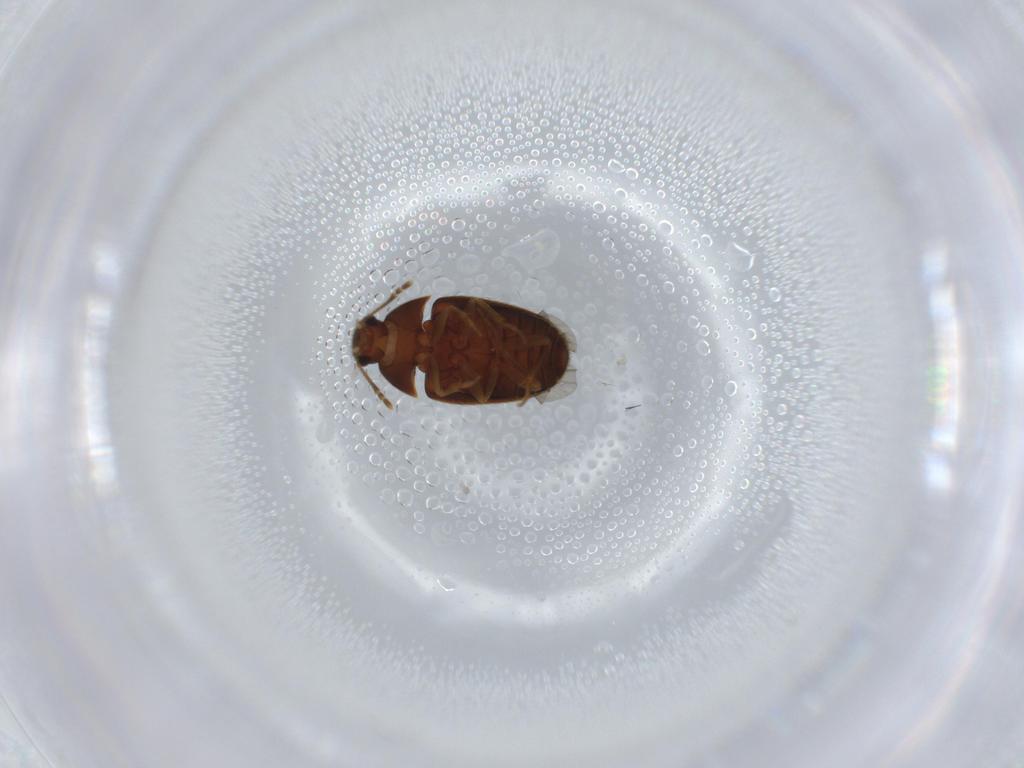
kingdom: Animalia
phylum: Arthropoda
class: Insecta
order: Coleoptera
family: Mycetophagidae
